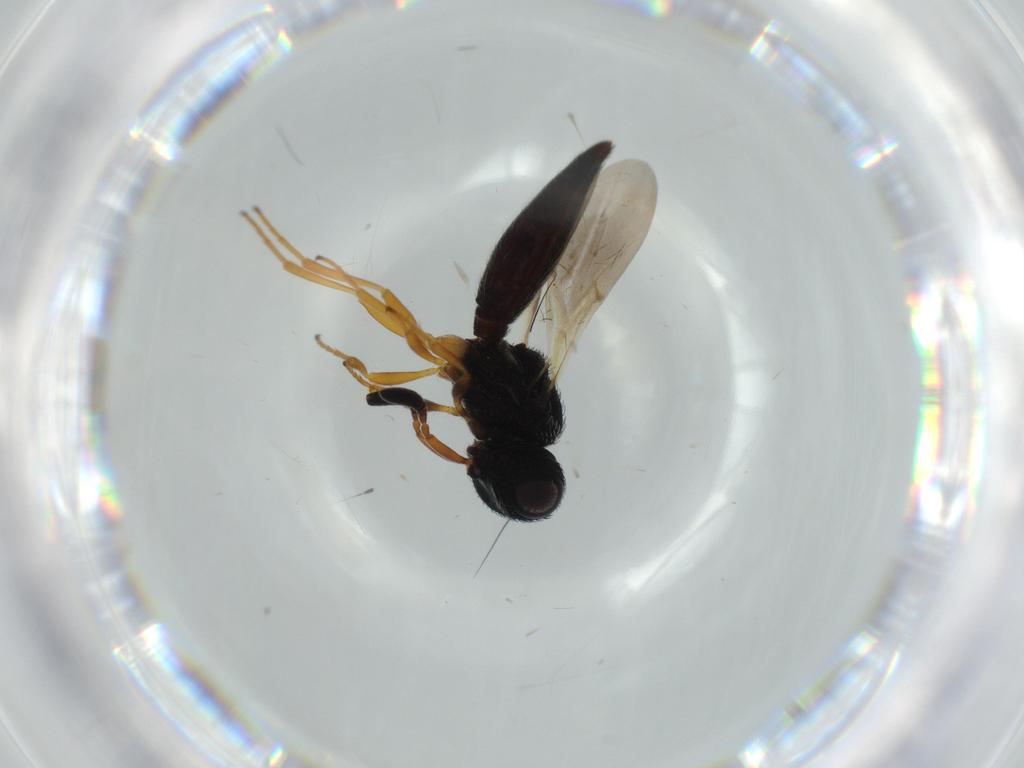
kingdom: Animalia
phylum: Arthropoda
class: Insecta
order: Hymenoptera
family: Scelionidae
